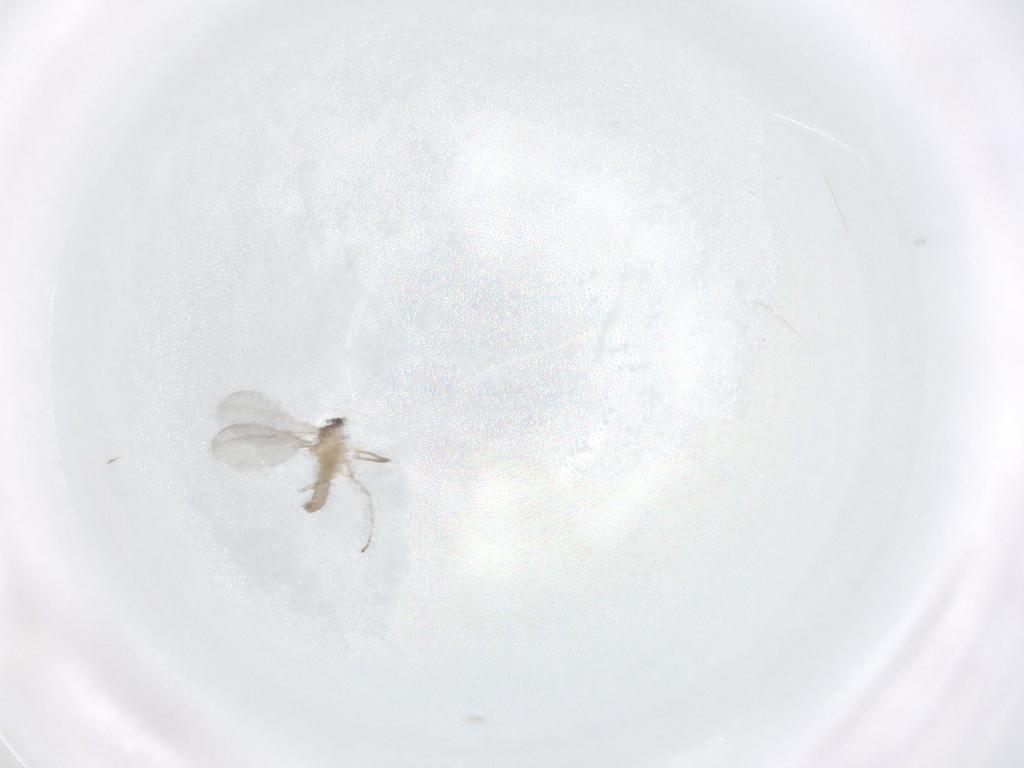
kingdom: Animalia
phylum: Arthropoda
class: Insecta
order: Diptera
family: Cecidomyiidae
